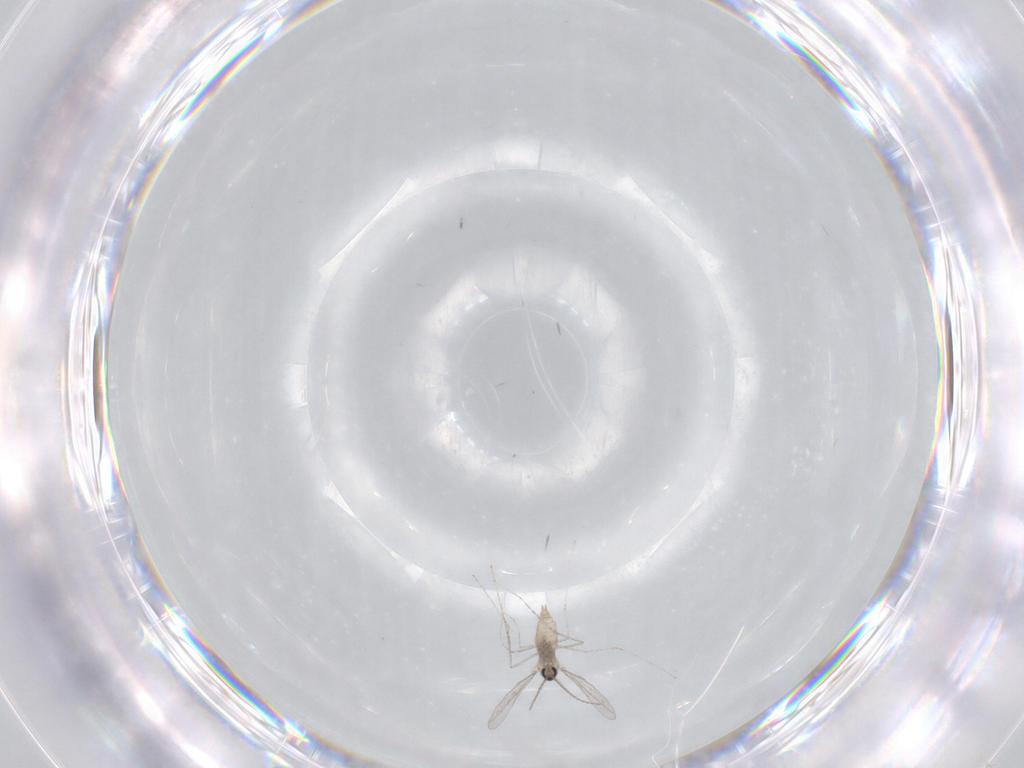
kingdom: Animalia
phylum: Arthropoda
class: Insecta
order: Diptera
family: Cecidomyiidae
